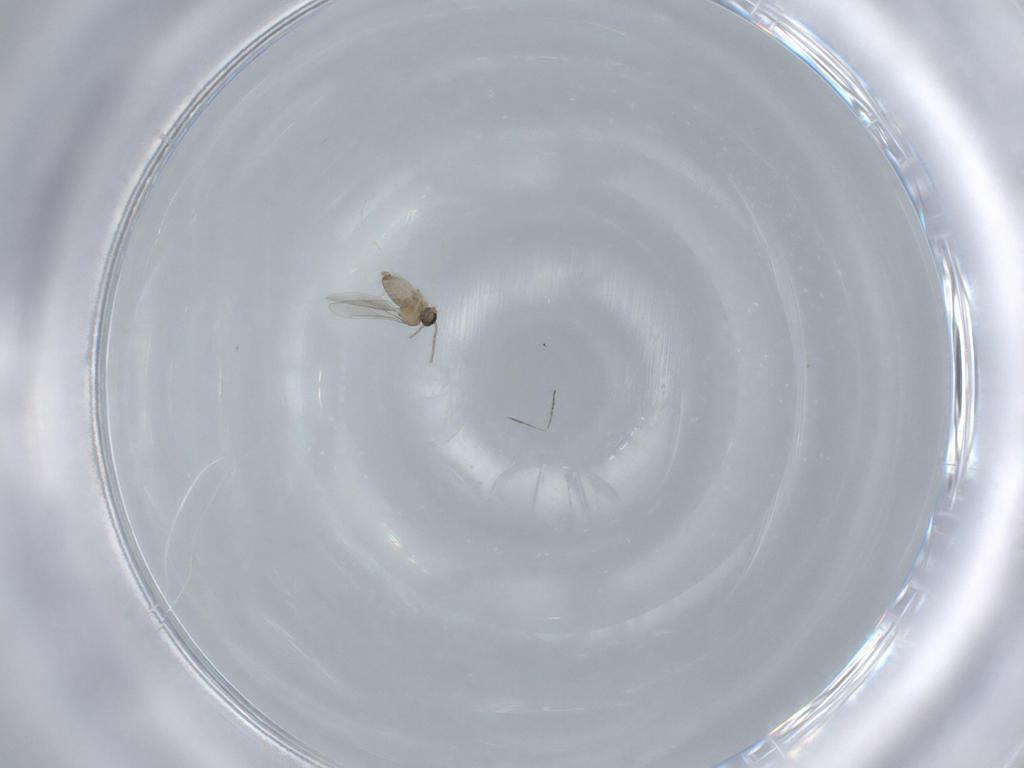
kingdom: Animalia
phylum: Arthropoda
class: Insecta
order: Diptera
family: Cecidomyiidae
